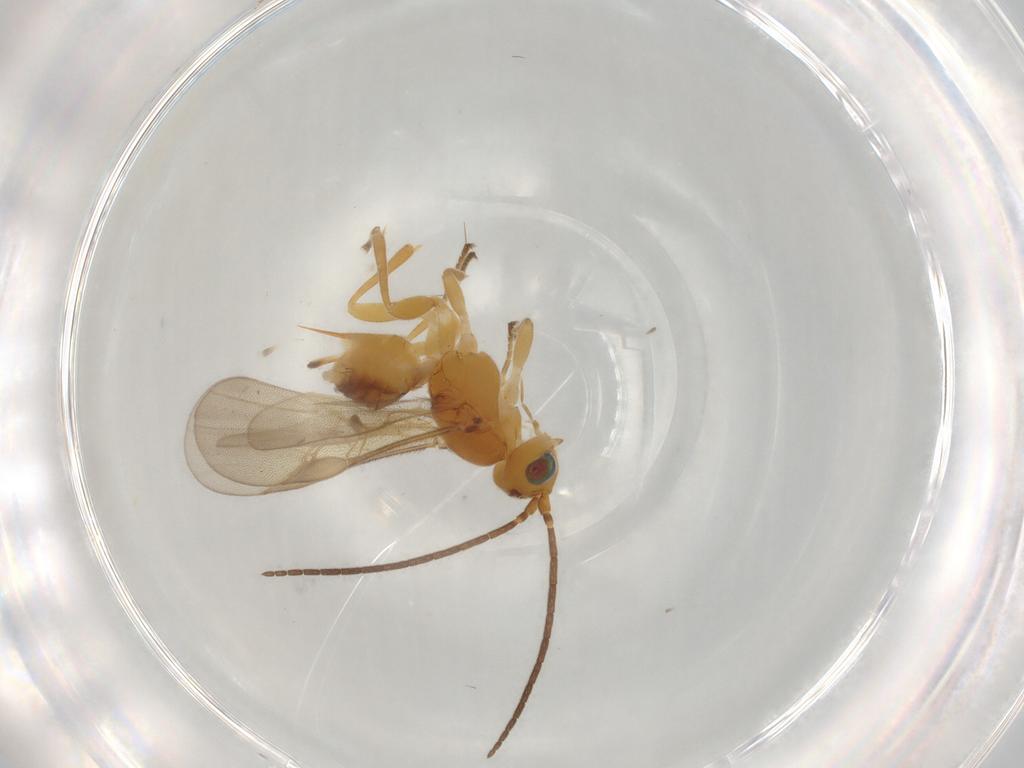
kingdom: Animalia
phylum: Arthropoda
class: Insecta
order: Hymenoptera
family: Braconidae
